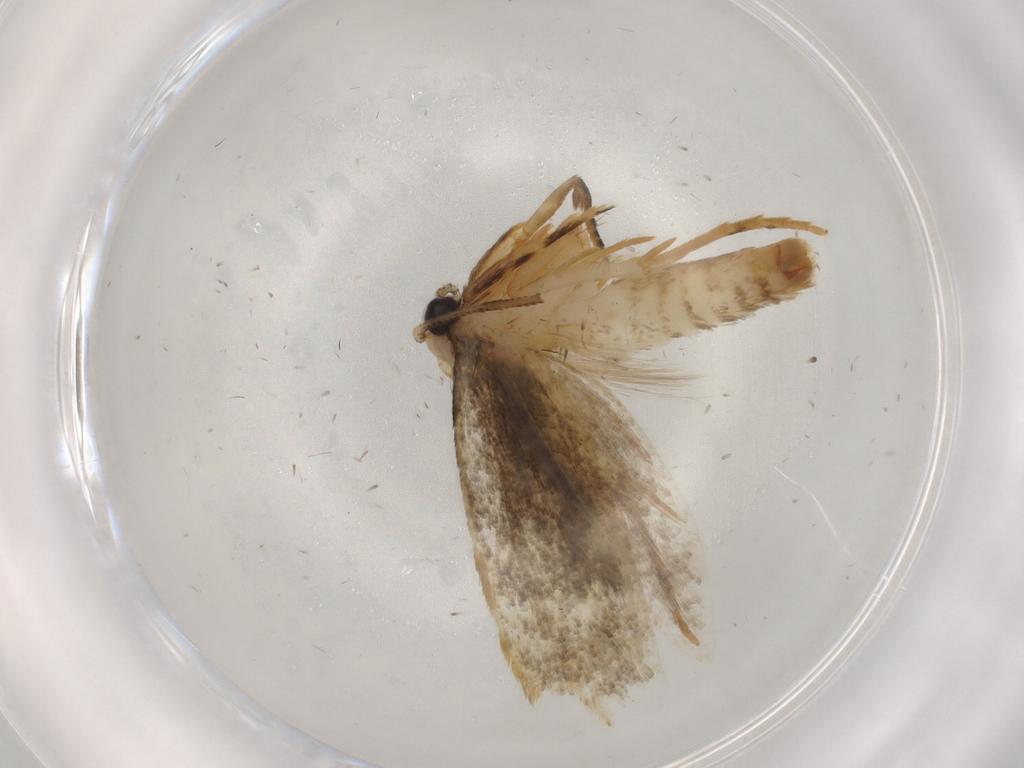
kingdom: Animalia
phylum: Arthropoda
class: Insecta
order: Lepidoptera
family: Tineidae
